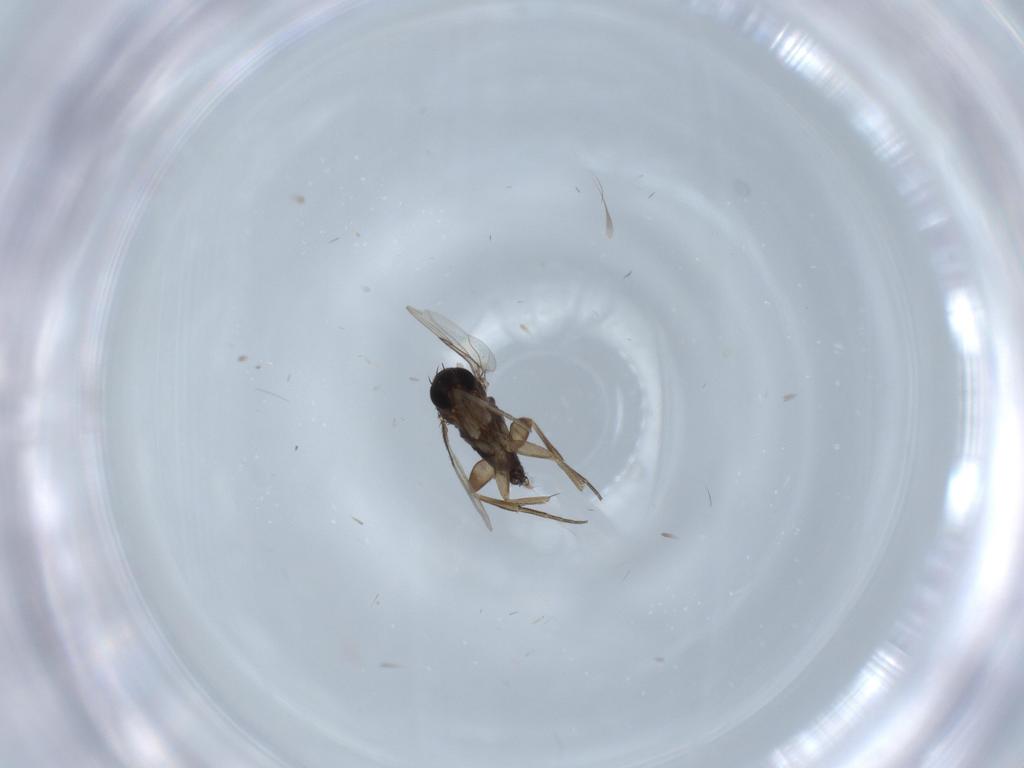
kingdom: Animalia
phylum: Arthropoda
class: Insecta
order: Diptera
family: Phoridae
